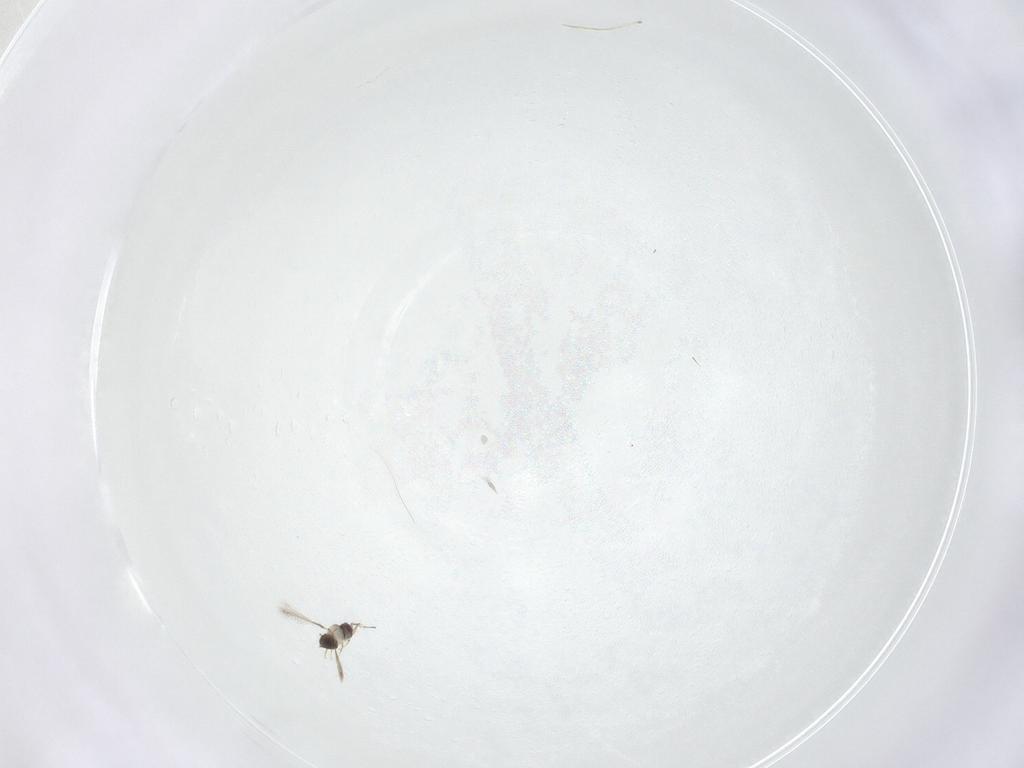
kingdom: Animalia
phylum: Arthropoda
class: Insecta
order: Hymenoptera
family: Mymaridae
